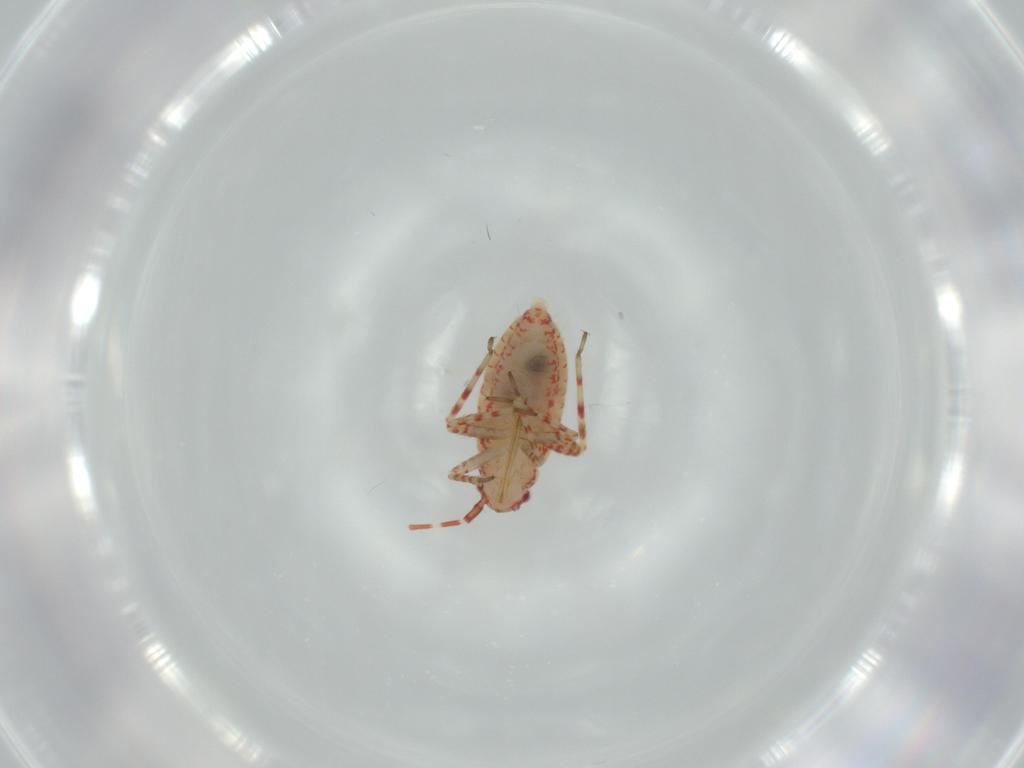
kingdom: Animalia
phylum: Arthropoda
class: Insecta
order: Hemiptera
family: Miridae
